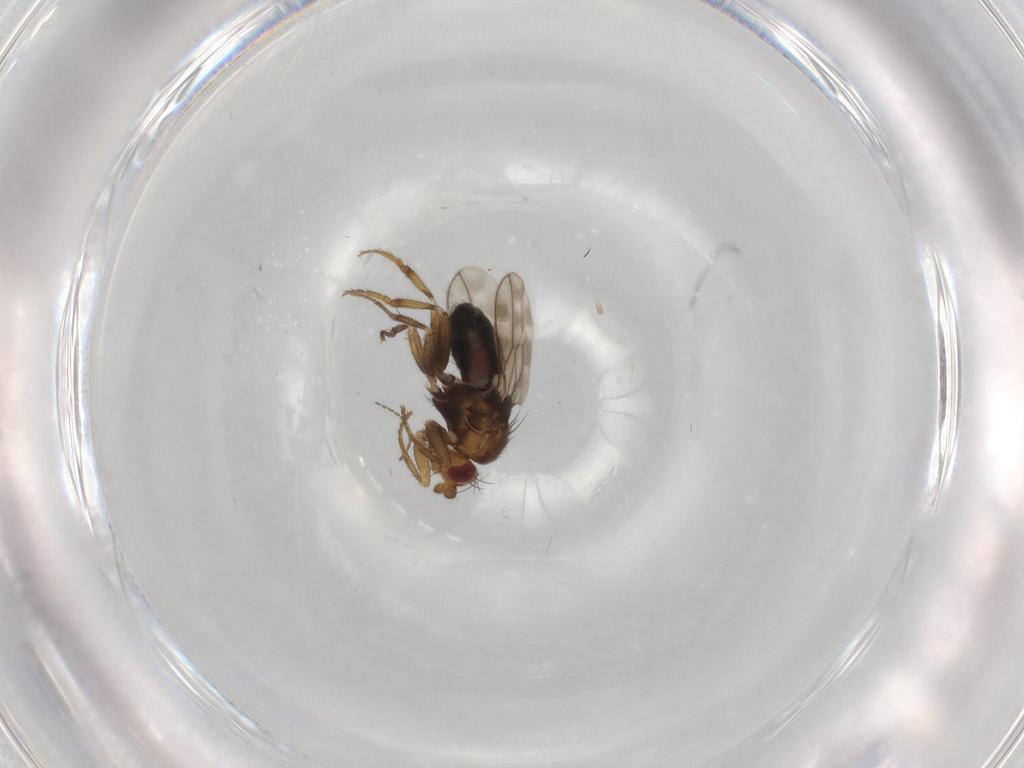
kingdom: Animalia
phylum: Arthropoda
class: Insecta
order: Diptera
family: Sphaeroceridae
